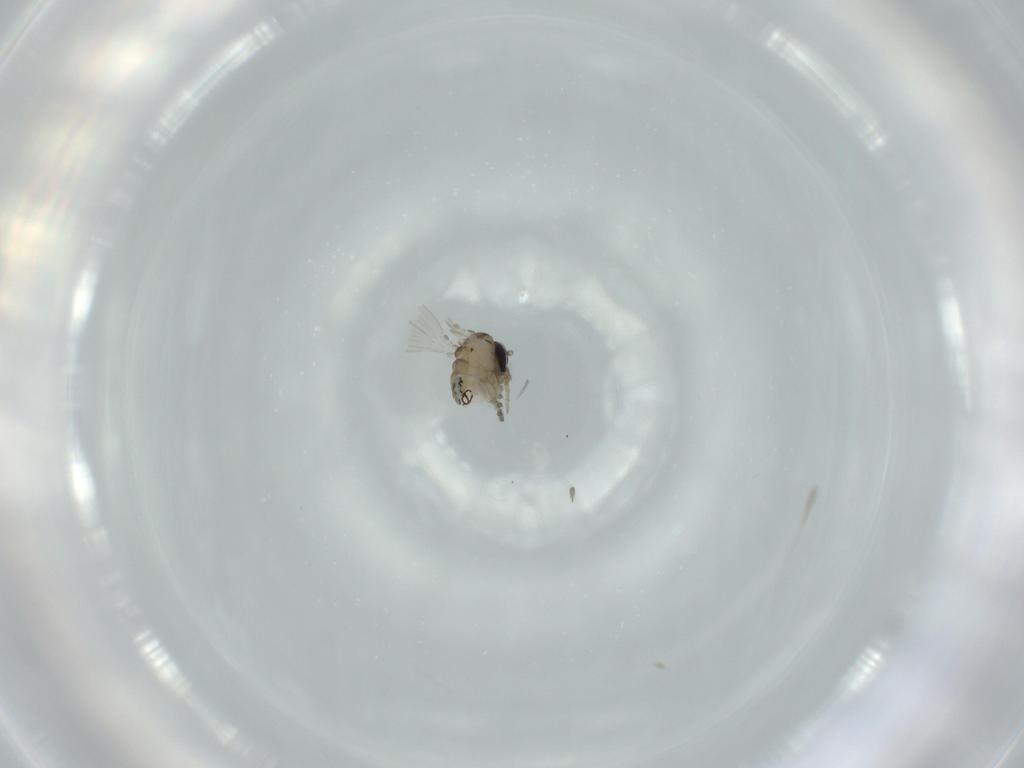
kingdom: Animalia
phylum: Arthropoda
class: Insecta
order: Diptera
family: Psychodidae
